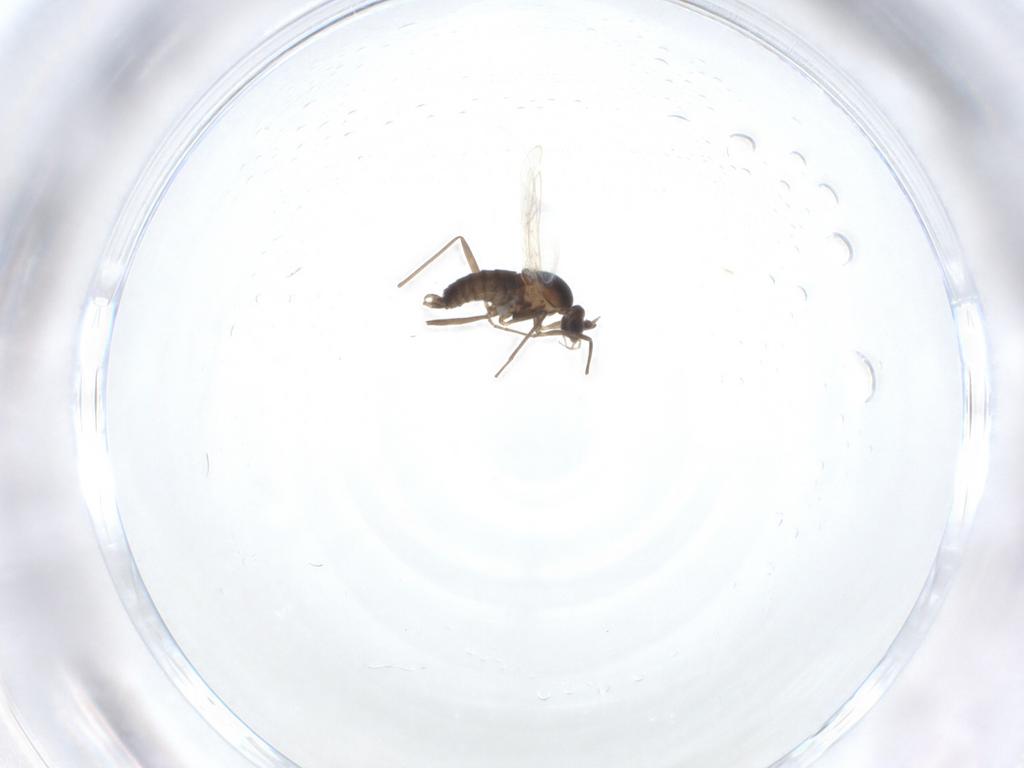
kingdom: Animalia
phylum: Arthropoda
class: Insecta
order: Diptera
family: Cecidomyiidae
